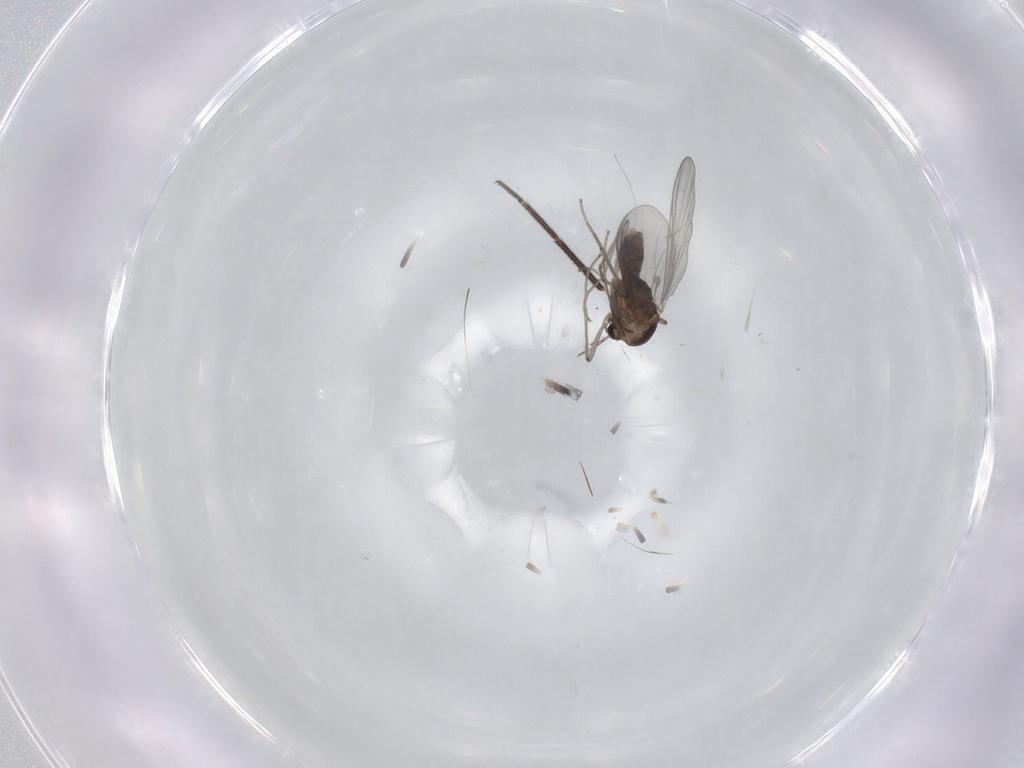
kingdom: Animalia
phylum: Arthropoda
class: Insecta
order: Diptera
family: Chironomidae
